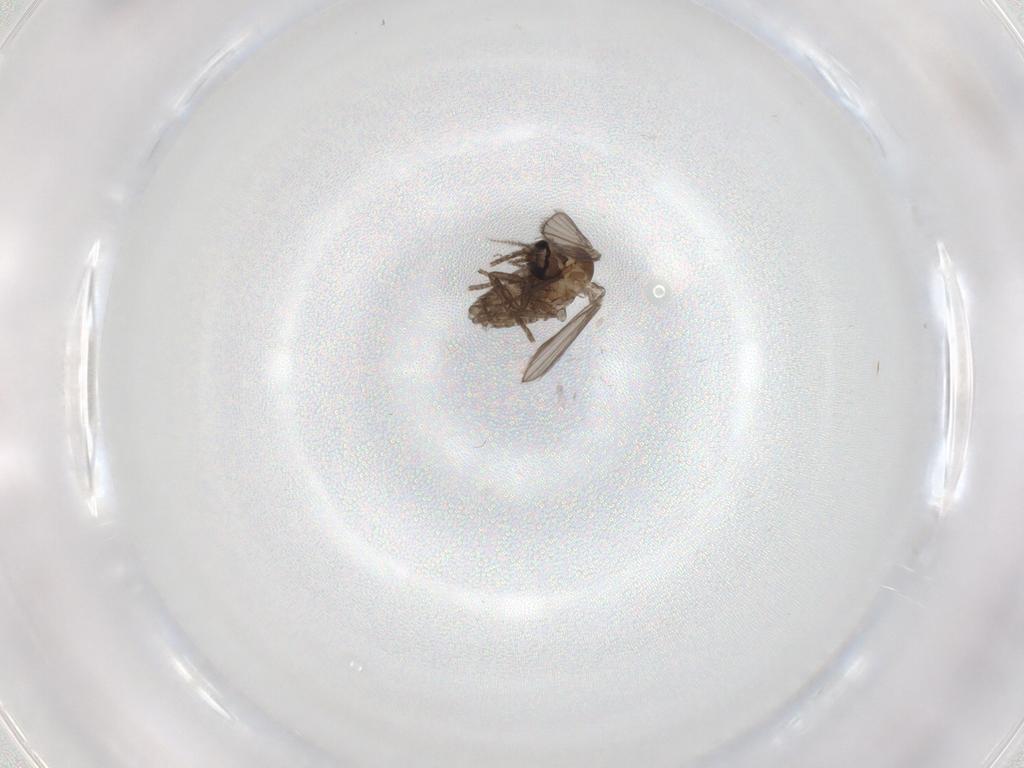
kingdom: Animalia
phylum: Arthropoda
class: Insecta
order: Diptera
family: Psychodidae
